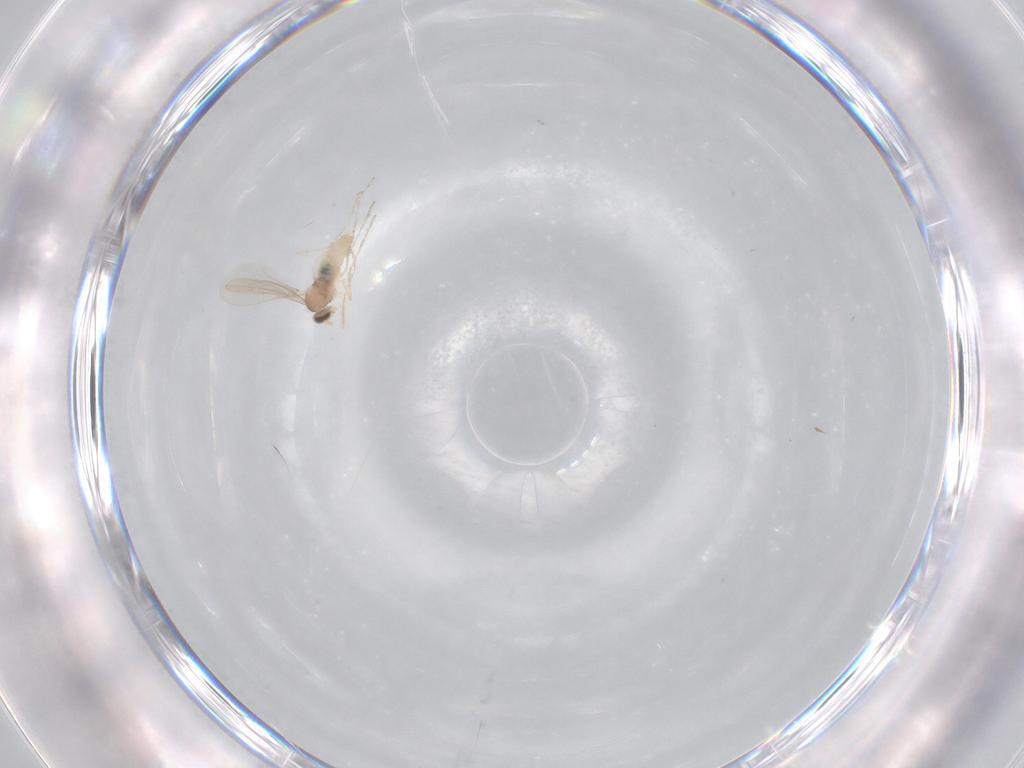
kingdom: Animalia
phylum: Arthropoda
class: Insecta
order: Diptera
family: Cecidomyiidae
